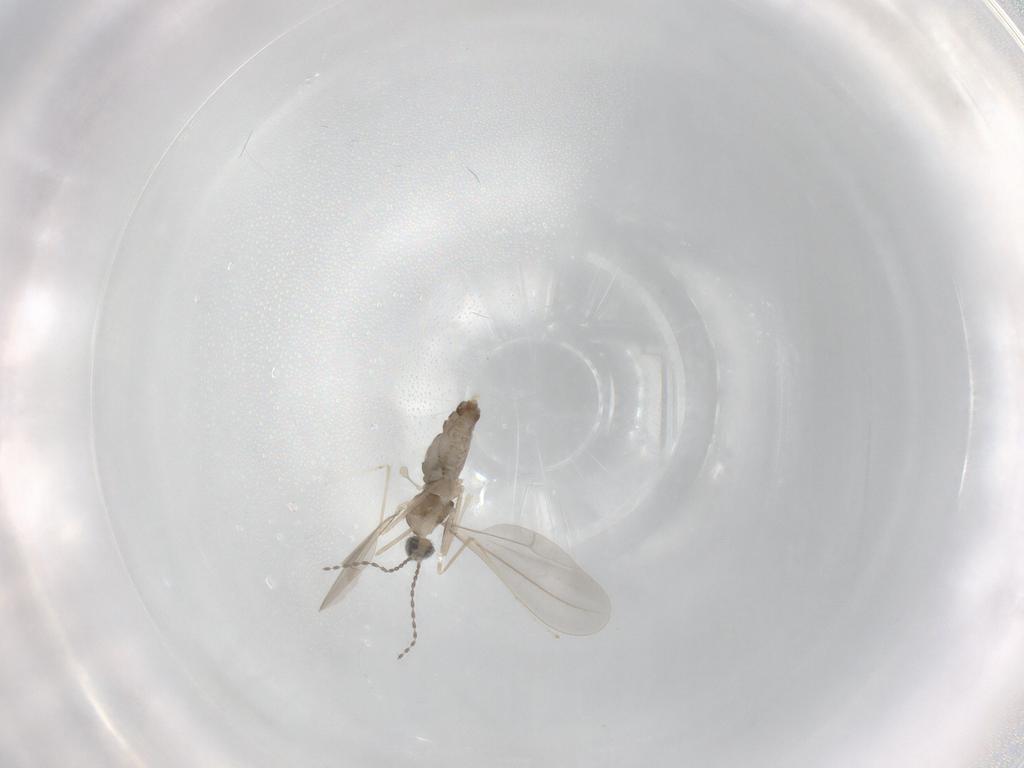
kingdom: Animalia
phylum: Arthropoda
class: Insecta
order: Diptera
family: Cecidomyiidae
